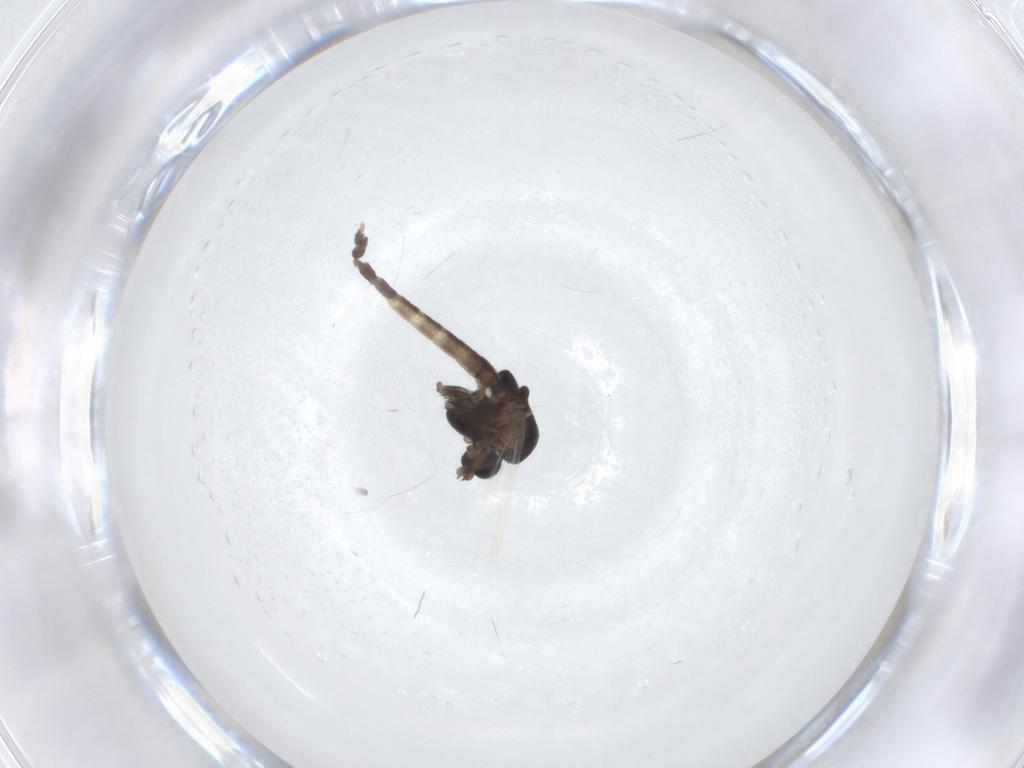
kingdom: Animalia
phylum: Arthropoda
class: Insecta
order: Diptera
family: Chironomidae
